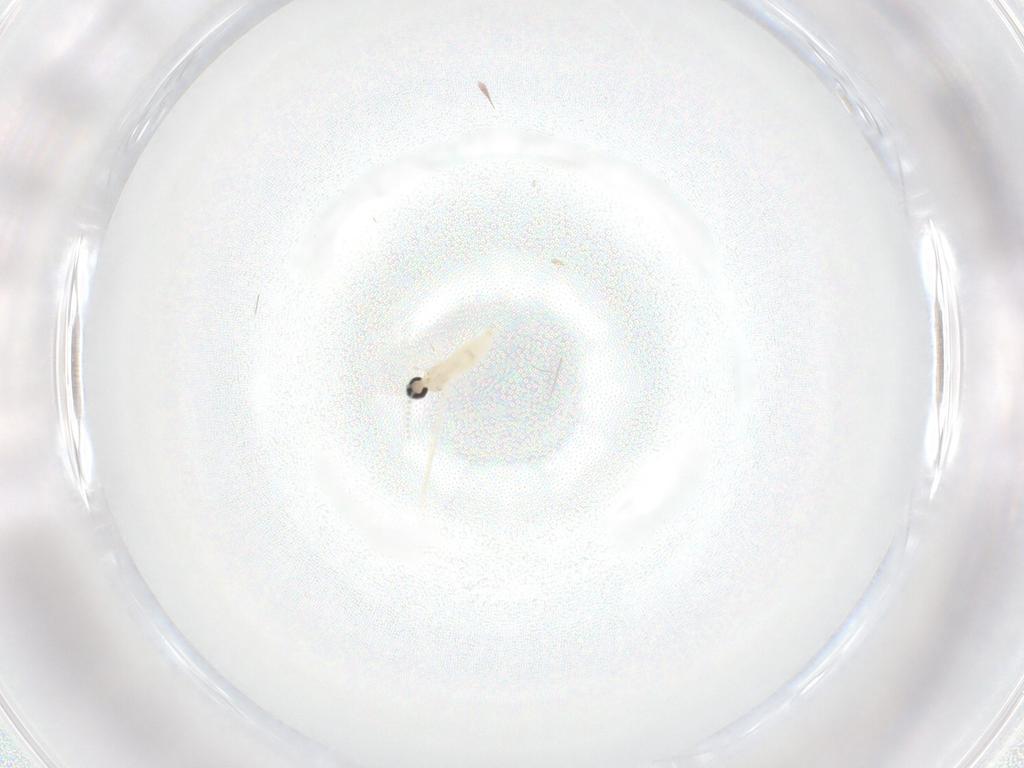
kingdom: Animalia
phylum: Arthropoda
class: Insecta
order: Diptera
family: Cecidomyiidae
